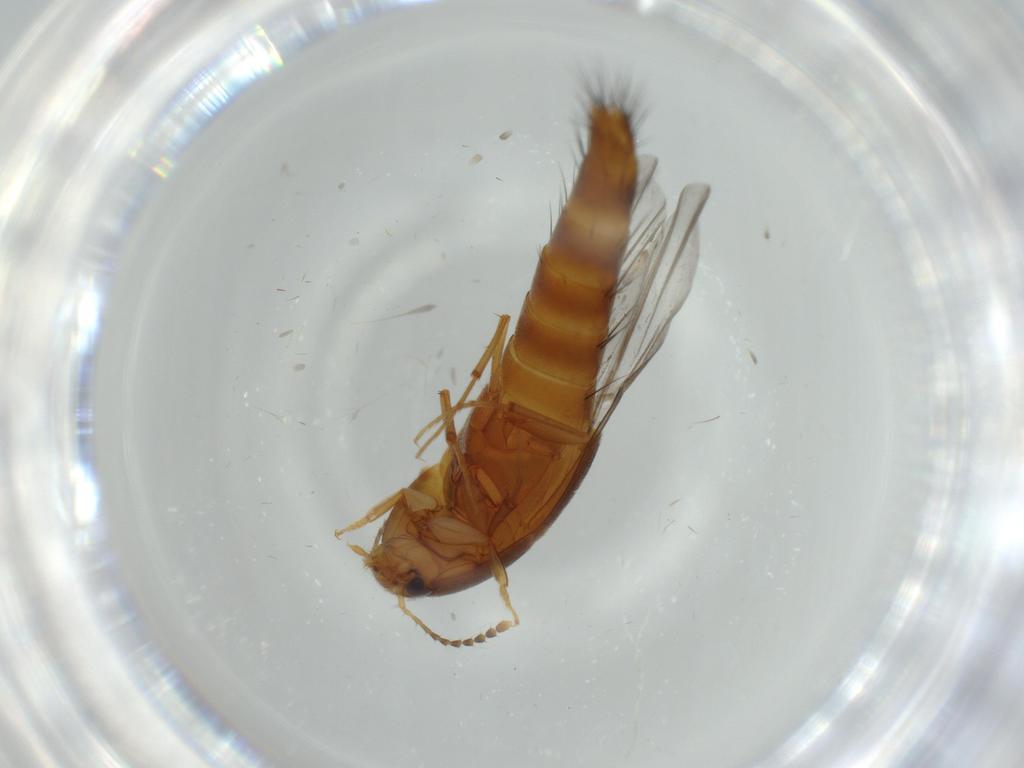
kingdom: Animalia
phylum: Arthropoda
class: Insecta
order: Coleoptera
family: Staphylinidae
